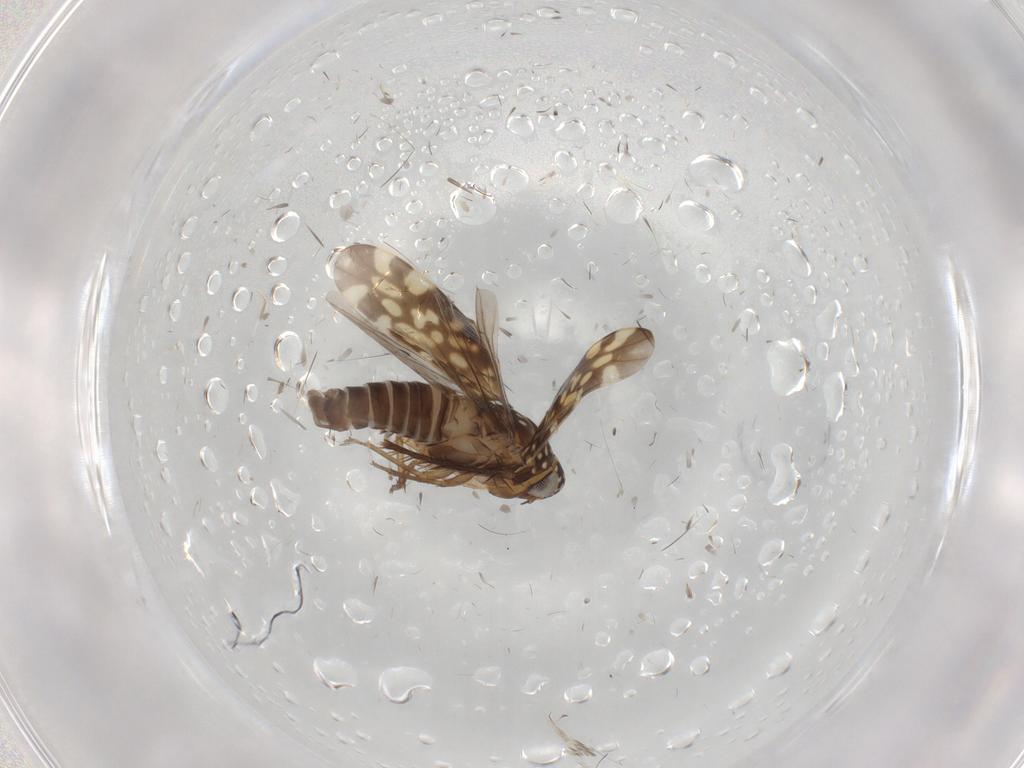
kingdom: Animalia
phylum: Arthropoda
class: Insecta
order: Hemiptera
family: Cicadellidae
